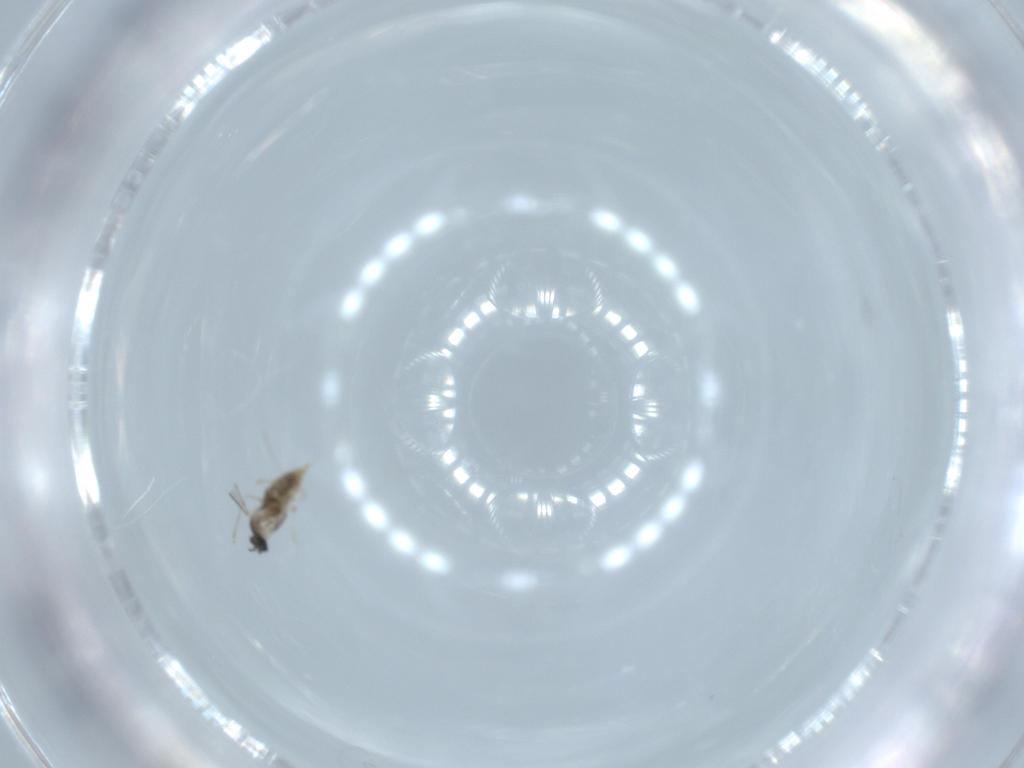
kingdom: Animalia
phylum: Arthropoda
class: Insecta
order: Diptera
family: Cecidomyiidae
